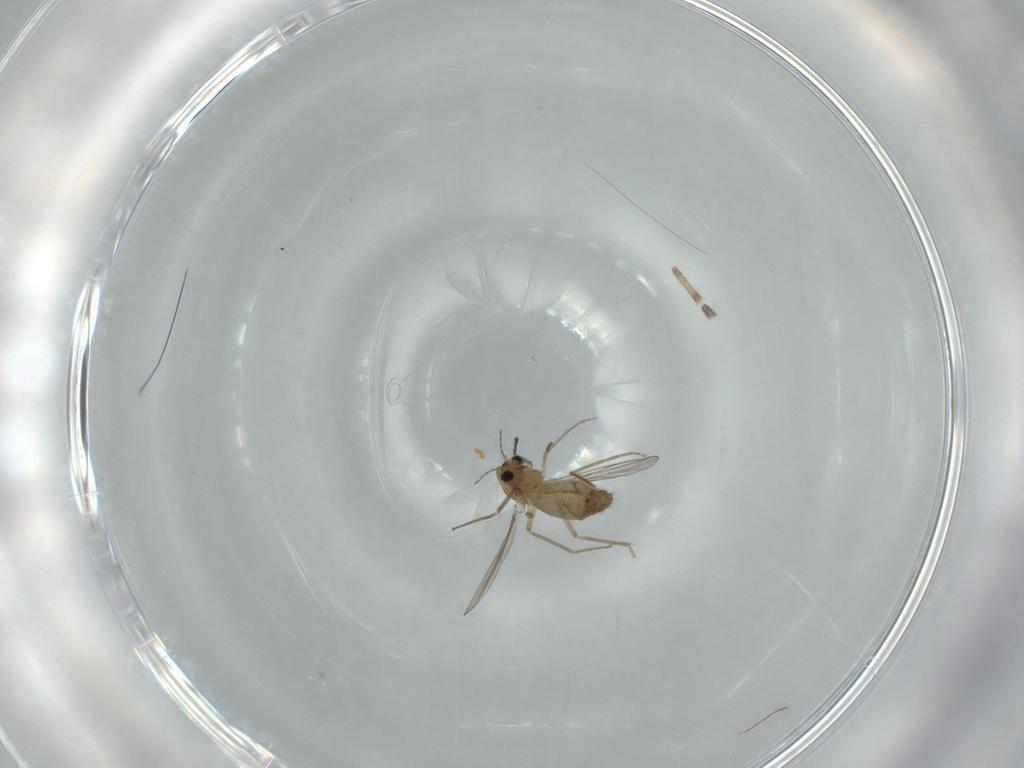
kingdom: Animalia
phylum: Arthropoda
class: Insecta
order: Diptera
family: Chironomidae
